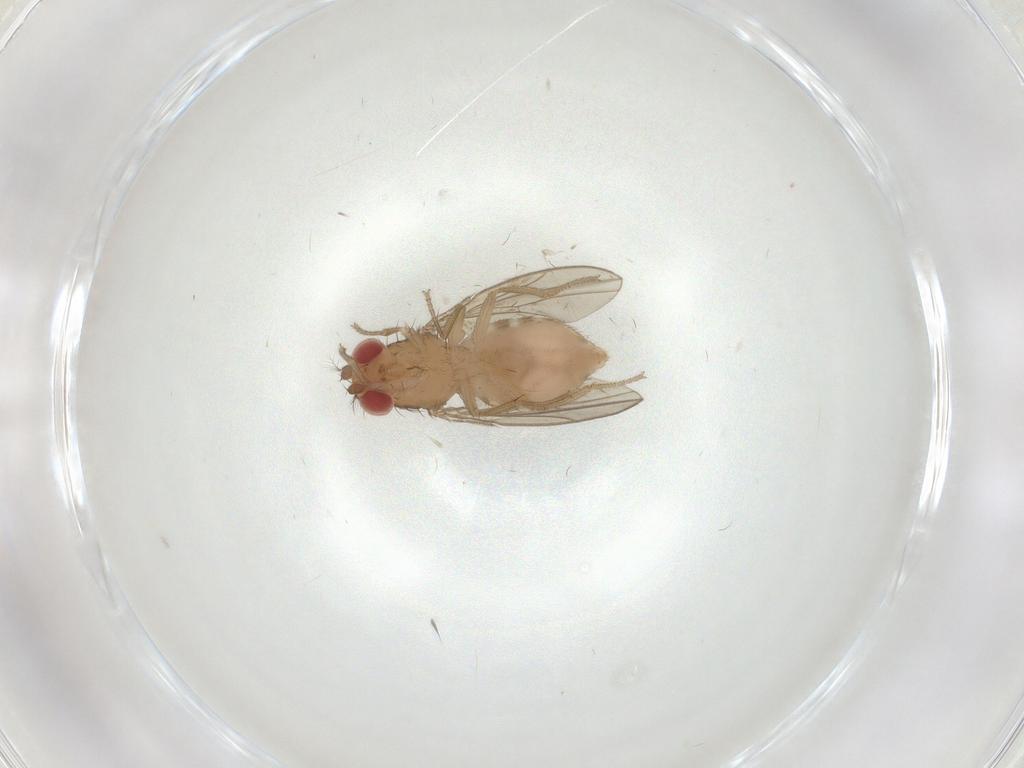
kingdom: Animalia
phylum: Arthropoda
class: Insecta
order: Diptera
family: Drosophilidae
